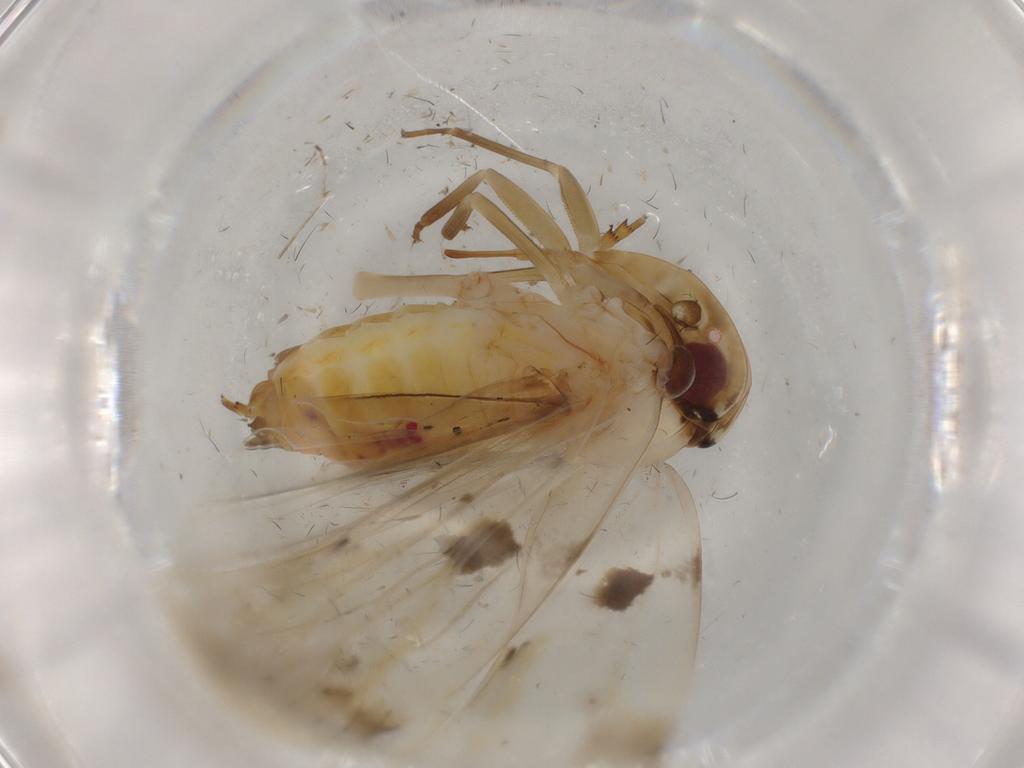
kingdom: Animalia
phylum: Arthropoda
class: Insecta
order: Hemiptera
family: Achilidae
